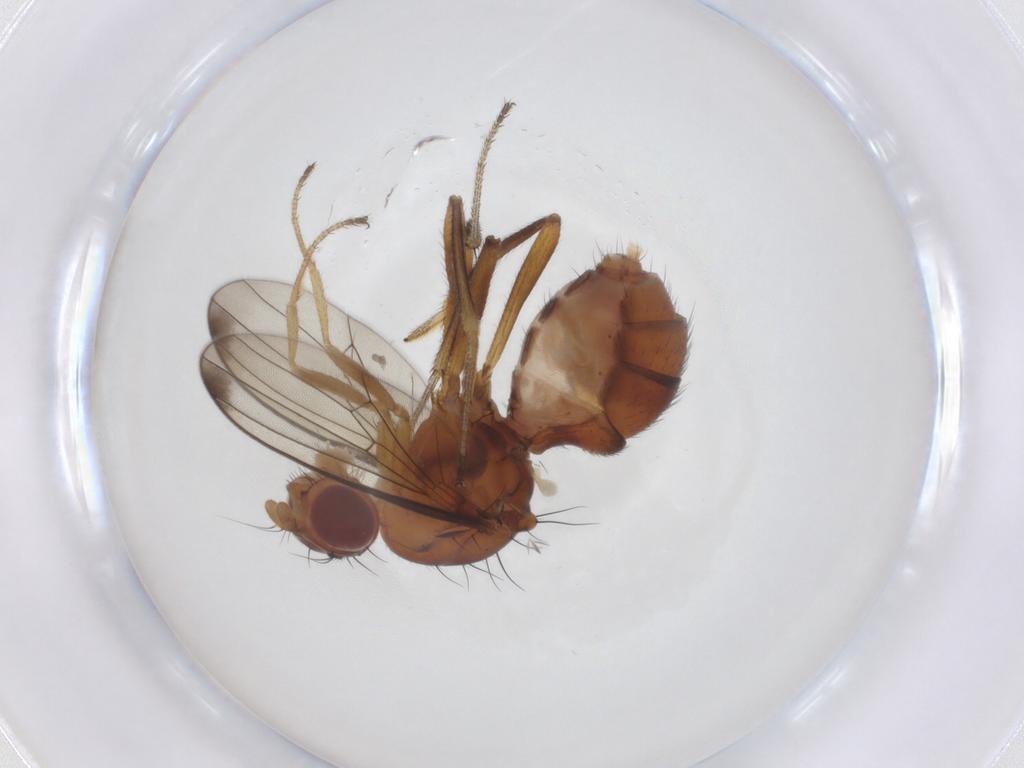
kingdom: Animalia
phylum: Arthropoda
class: Insecta
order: Diptera
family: Sepsidae
